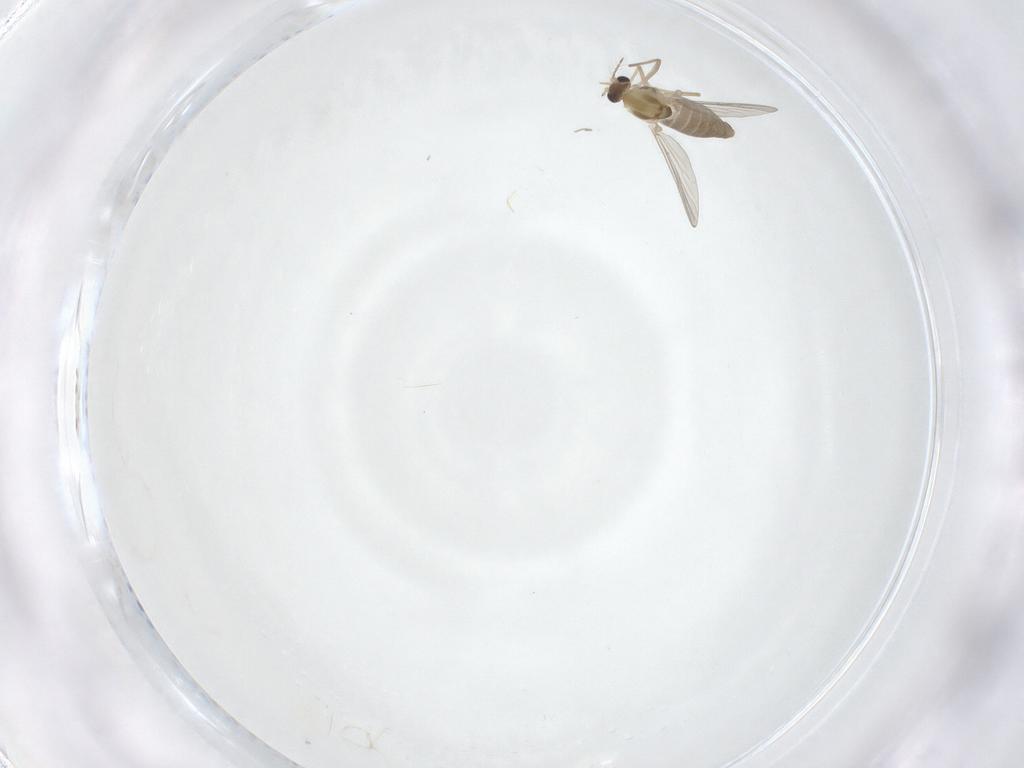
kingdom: Animalia
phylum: Arthropoda
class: Insecta
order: Diptera
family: Chironomidae
